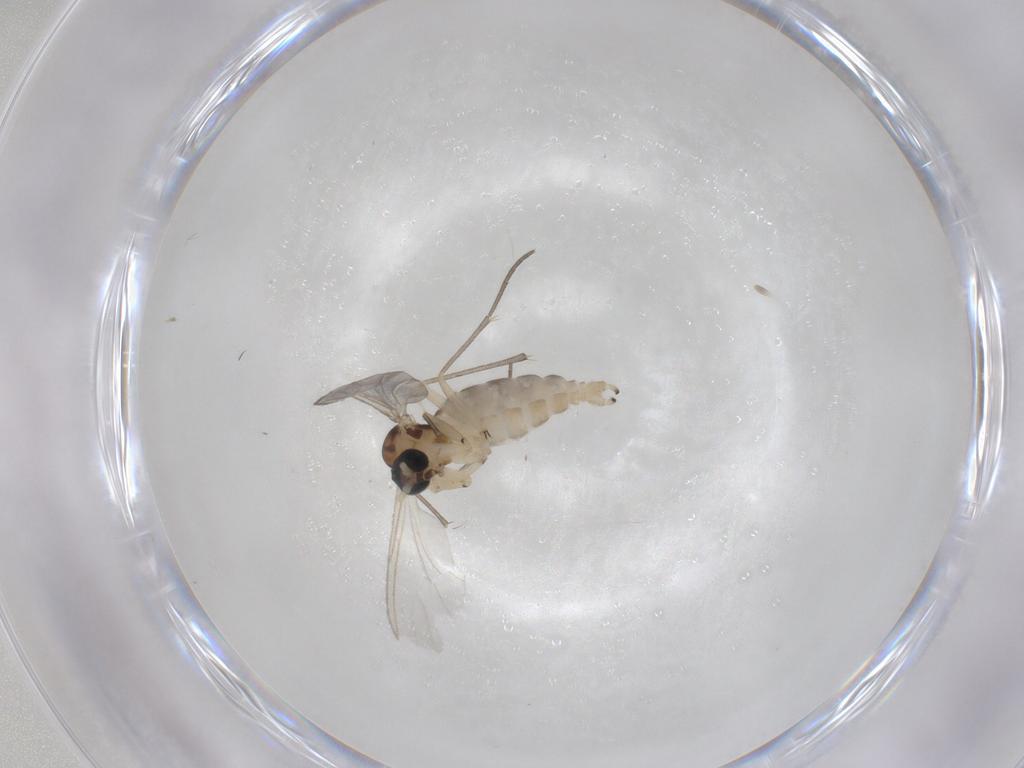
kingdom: Animalia
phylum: Arthropoda
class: Insecta
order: Diptera
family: Sciaridae
